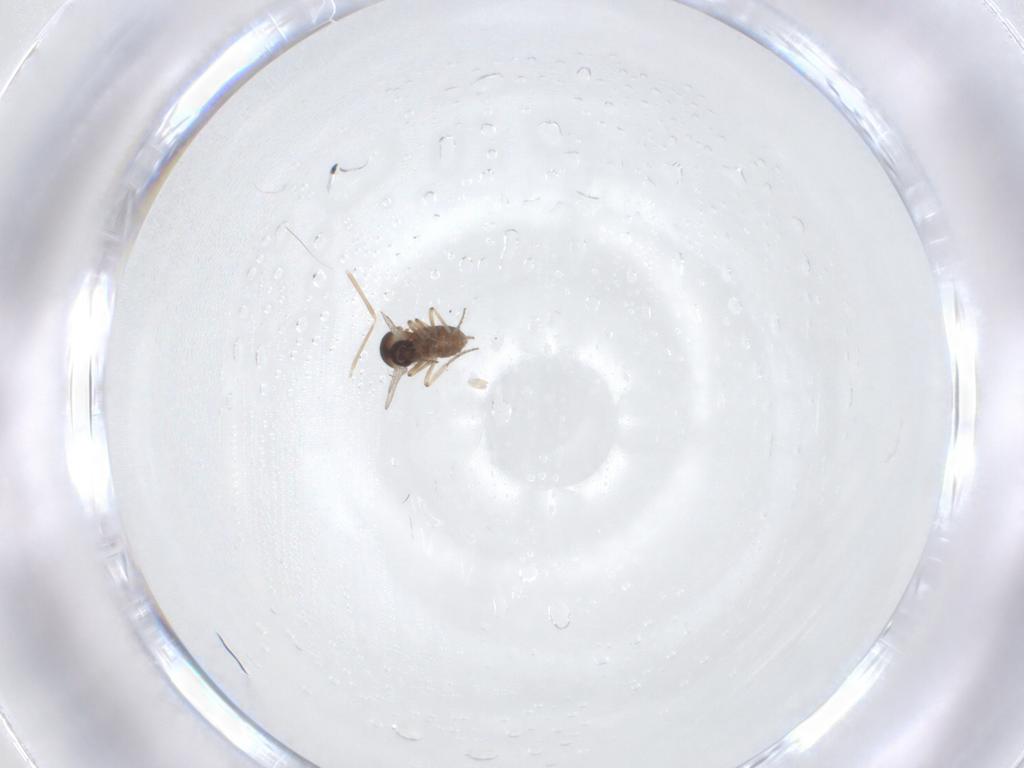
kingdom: Animalia
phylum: Arthropoda
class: Insecta
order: Diptera
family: Ceratopogonidae
